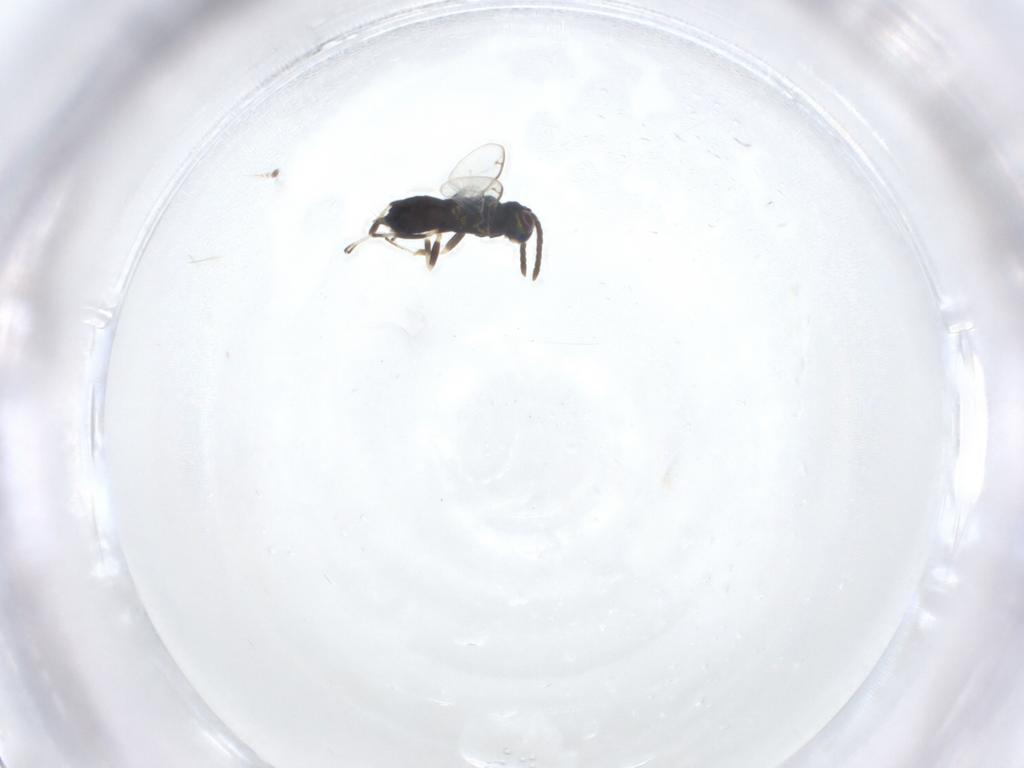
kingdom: Animalia
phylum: Arthropoda
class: Insecta
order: Hymenoptera
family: Eupelmidae
